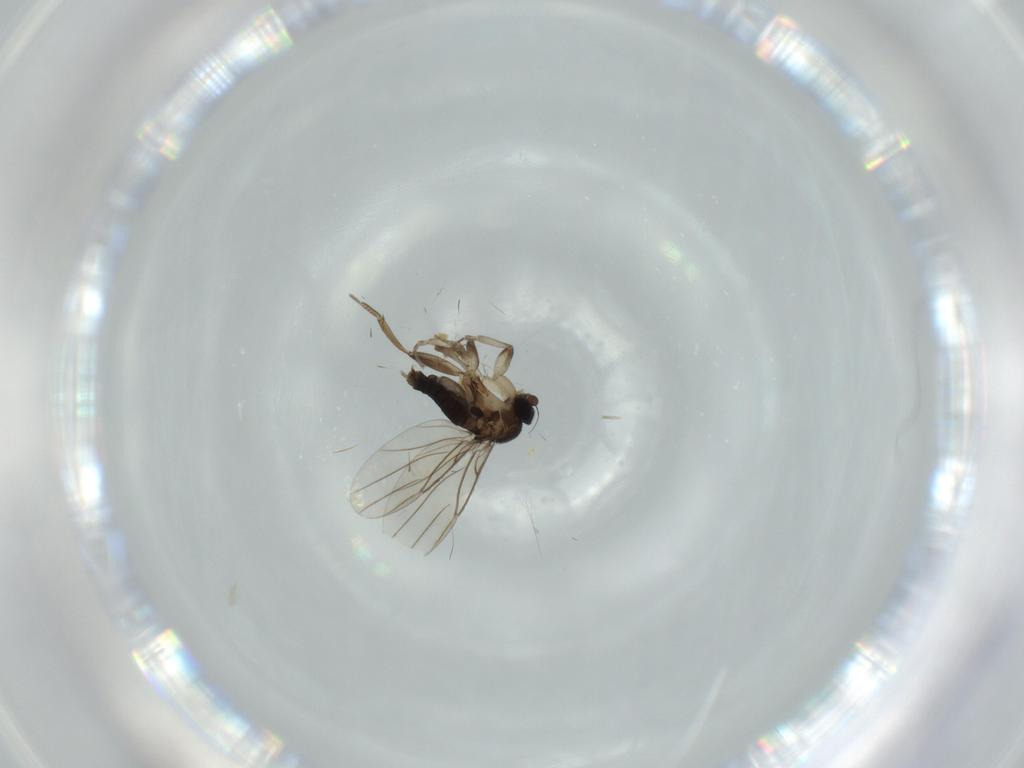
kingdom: Animalia
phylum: Arthropoda
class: Insecta
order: Diptera
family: Phoridae
